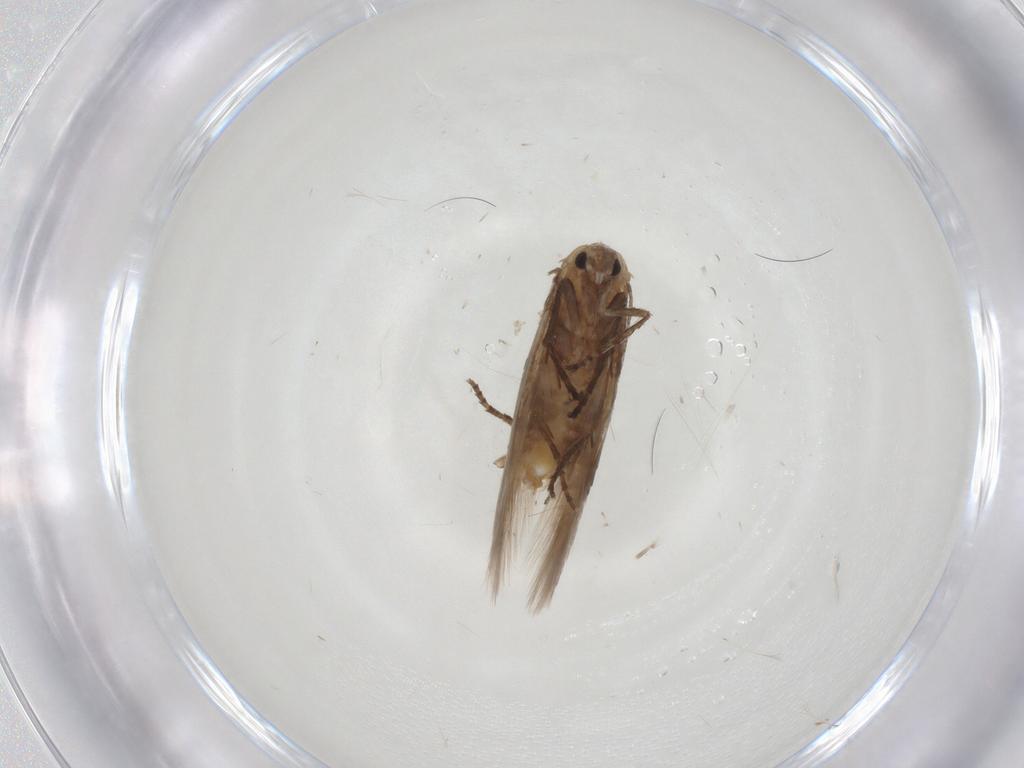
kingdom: Animalia
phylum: Arthropoda
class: Insecta
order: Lepidoptera
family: Bucculatricidae
